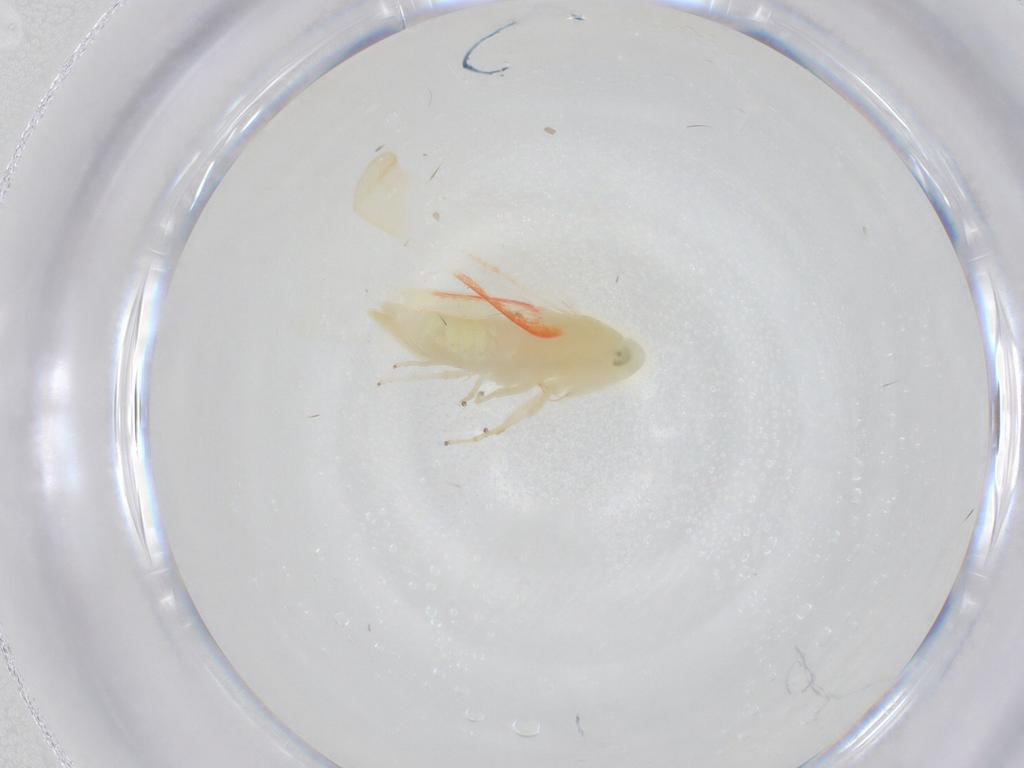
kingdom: Animalia
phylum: Arthropoda
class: Insecta
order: Hemiptera
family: Cicadellidae
